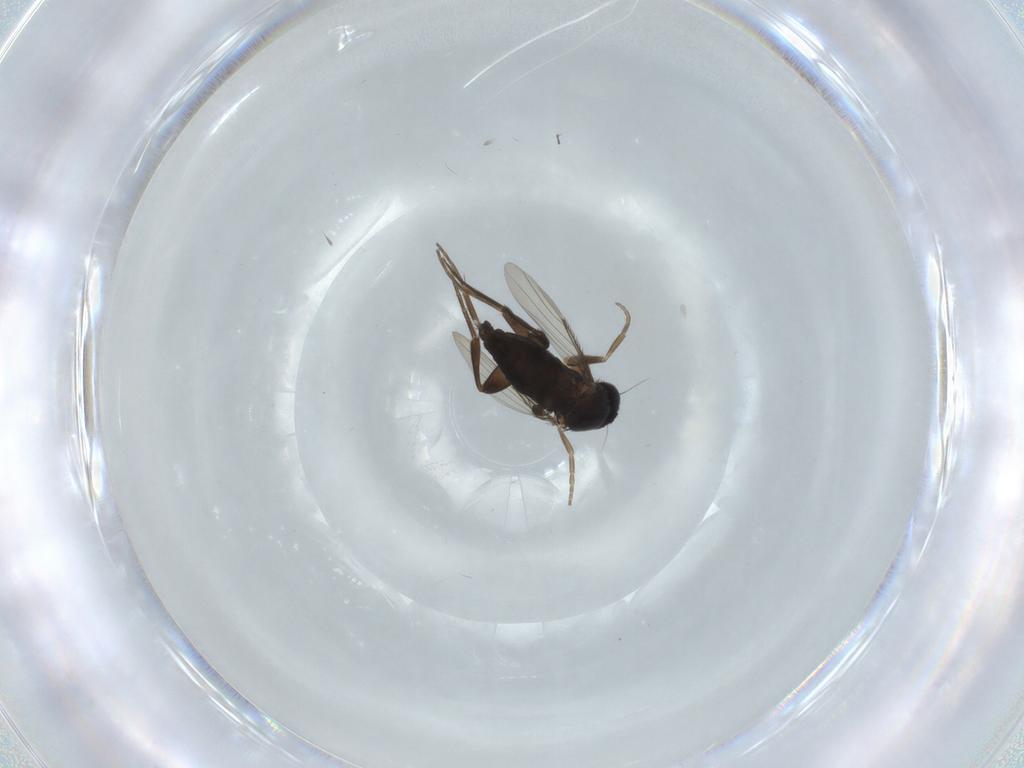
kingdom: Animalia
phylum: Arthropoda
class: Insecta
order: Diptera
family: Phoridae
